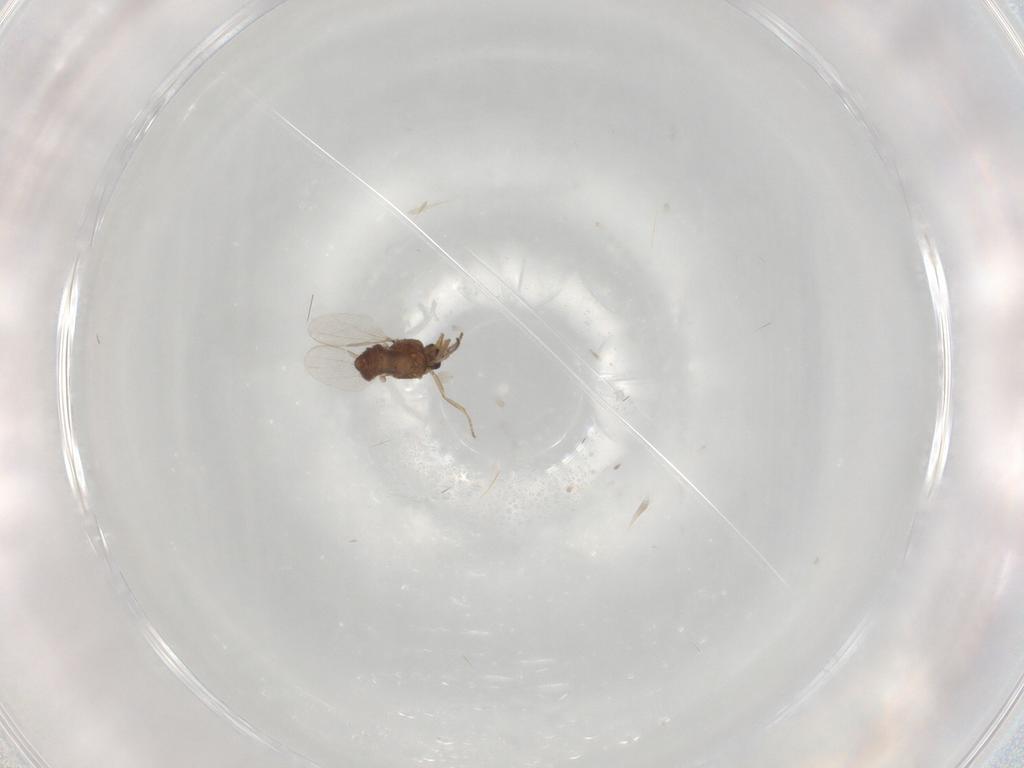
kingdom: Animalia
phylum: Arthropoda
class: Insecta
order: Diptera
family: Ceratopogonidae
